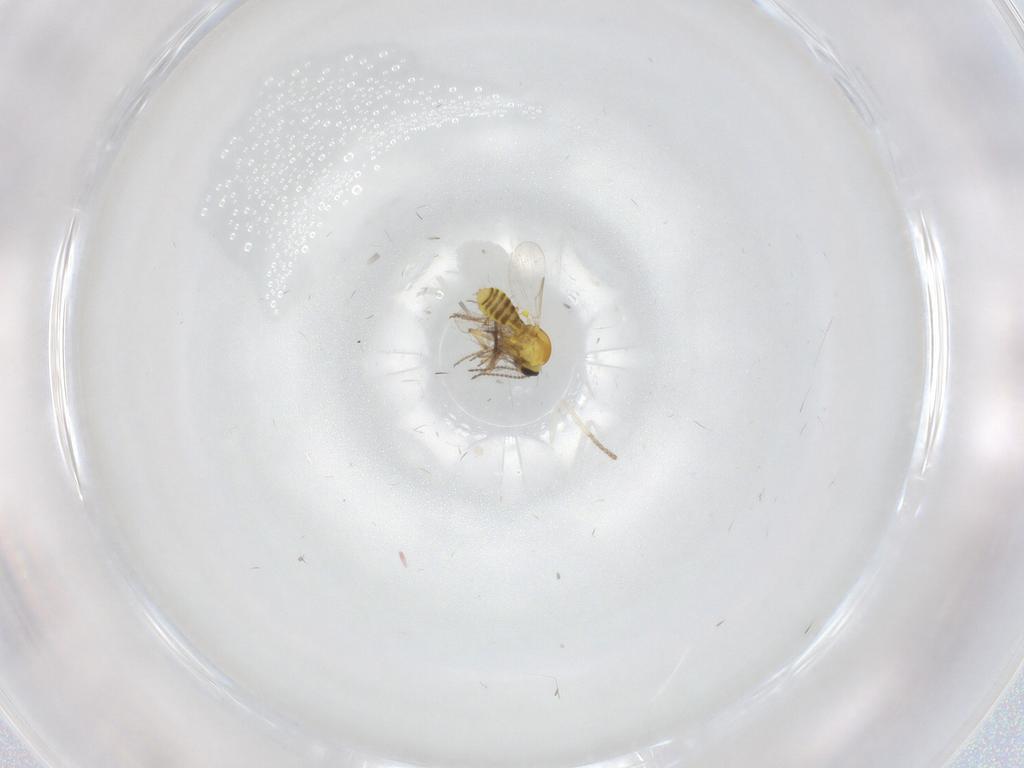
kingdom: Animalia
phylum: Arthropoda
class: Insecta
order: Diptera
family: Ceratopogonidae
